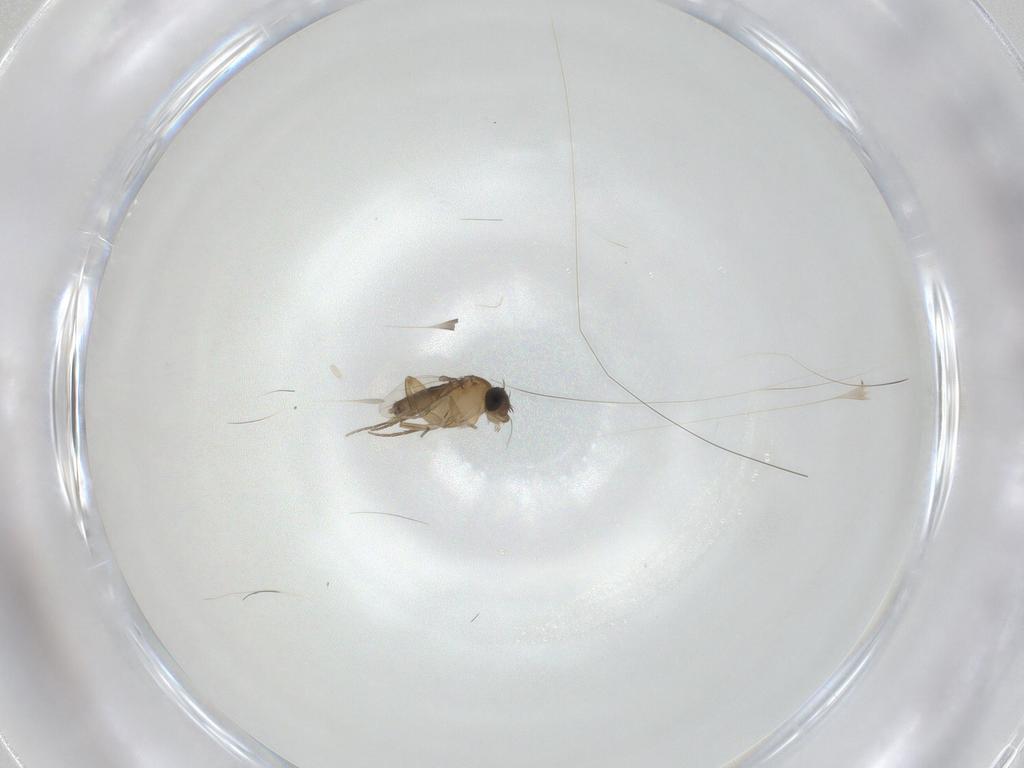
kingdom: Animalia
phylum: Arthropoda
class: Insecta
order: Diptera
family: Phoridae
